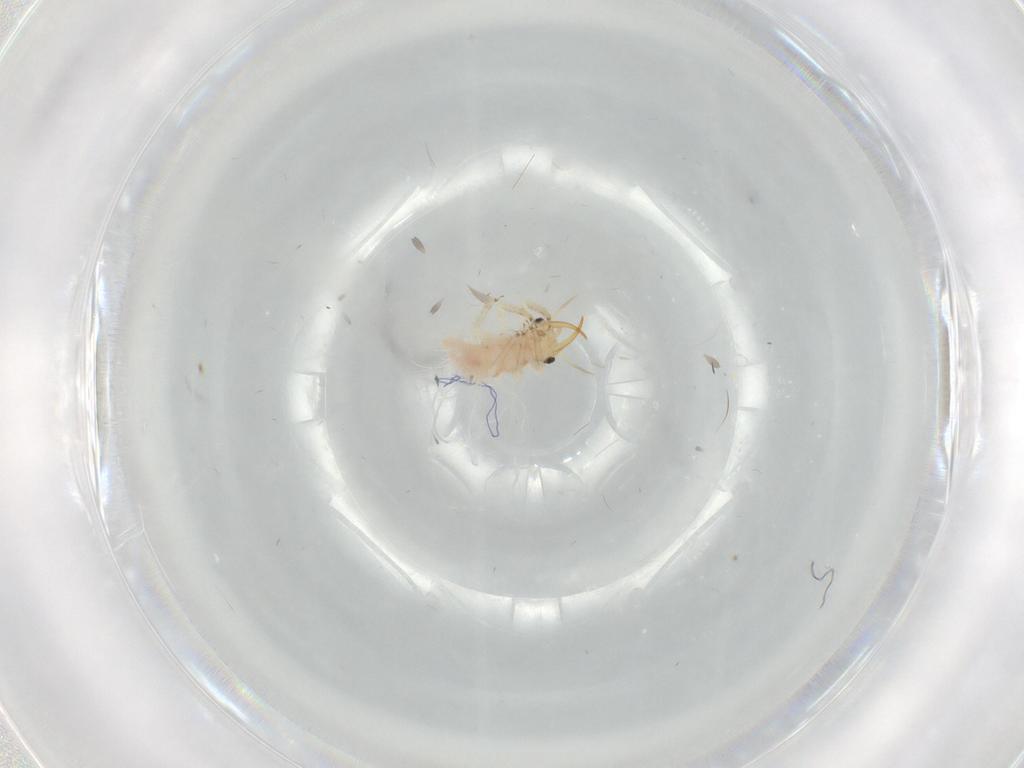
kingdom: Animalia
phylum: Arthropoda
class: Insecta
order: Neuroptera
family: Chrysopidae
